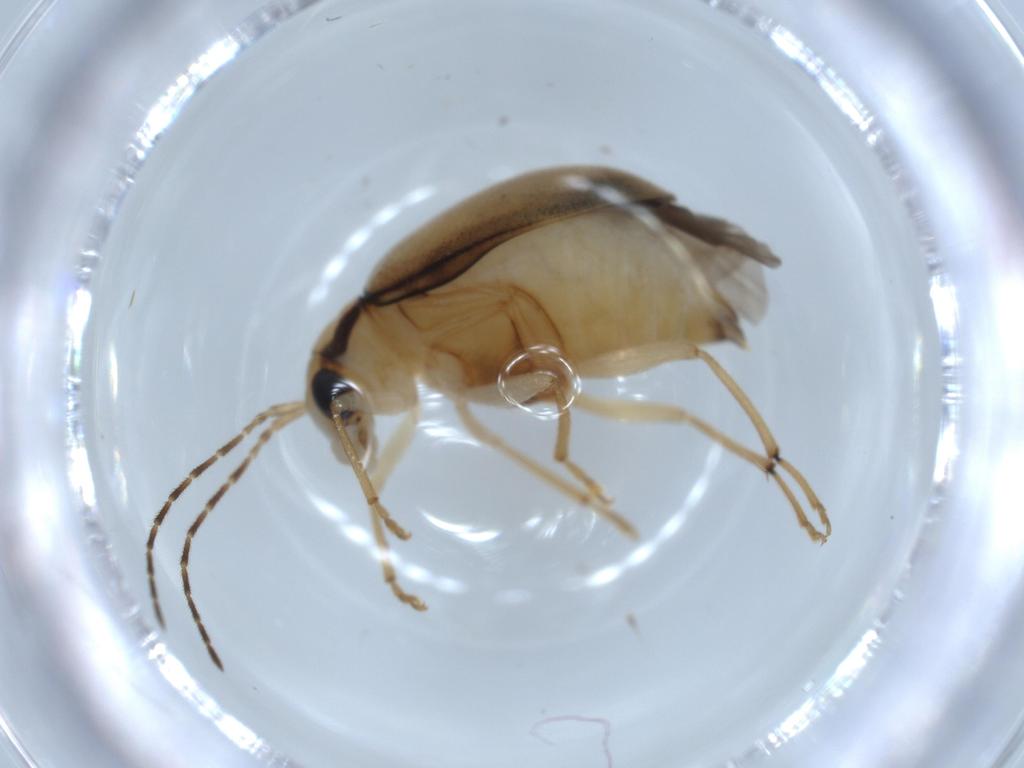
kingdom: Animalia
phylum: Arthropoda
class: Insecta
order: Coleoptera
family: Chrysomelidae
